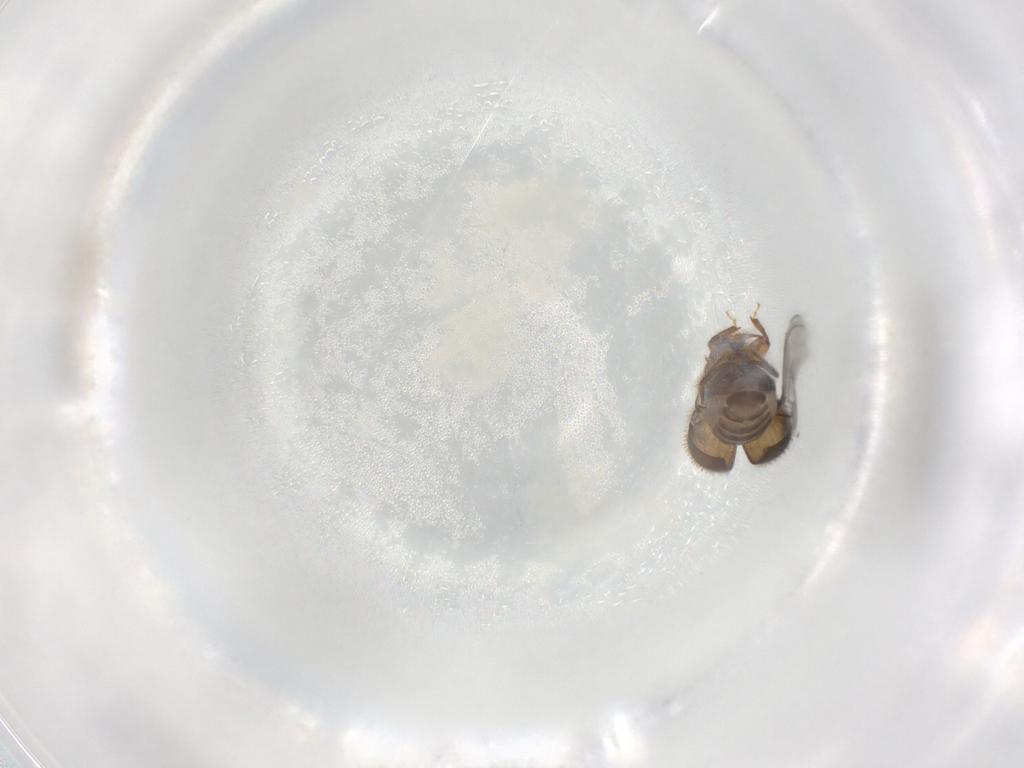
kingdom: Animalia
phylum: Arthropoda
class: Insecta
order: Coleoptera
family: Curculionidae
